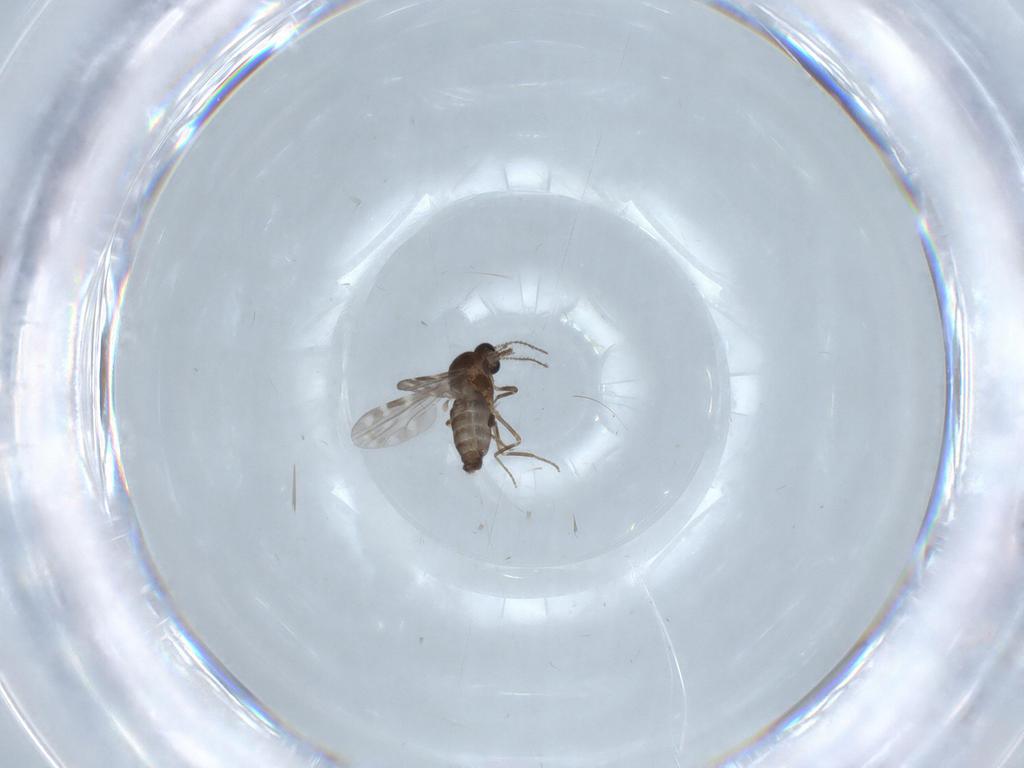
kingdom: Animalia
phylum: Arthropoda
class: Insecta
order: Diptera
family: Ceratopogonidae
